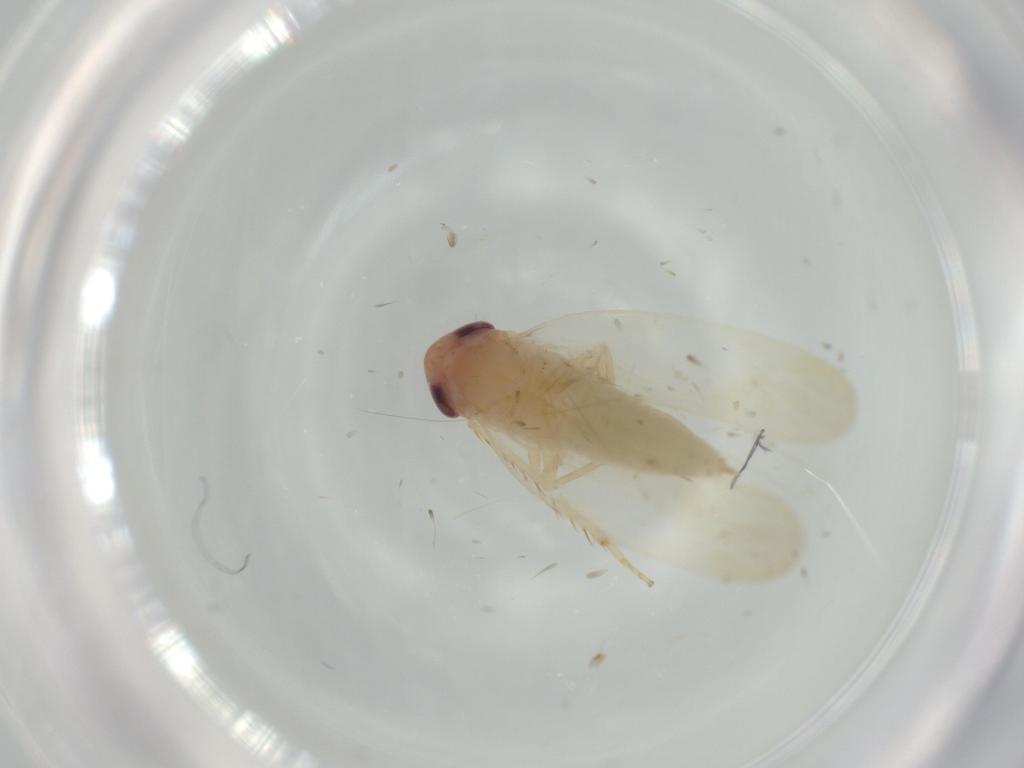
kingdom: Animalia
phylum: Arthropoda
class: Insecta
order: Hemiptera
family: Cicadellidae
